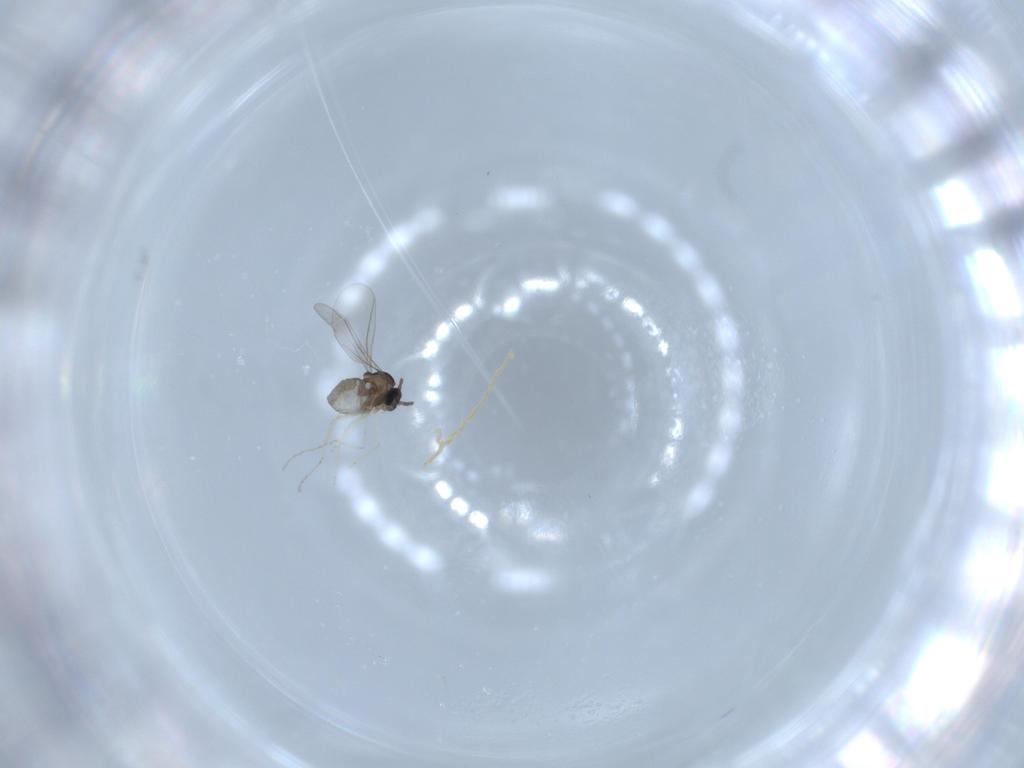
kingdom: Animalia
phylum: Arthropoda
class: Insecta
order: Diptera
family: Cecidomyiidae
